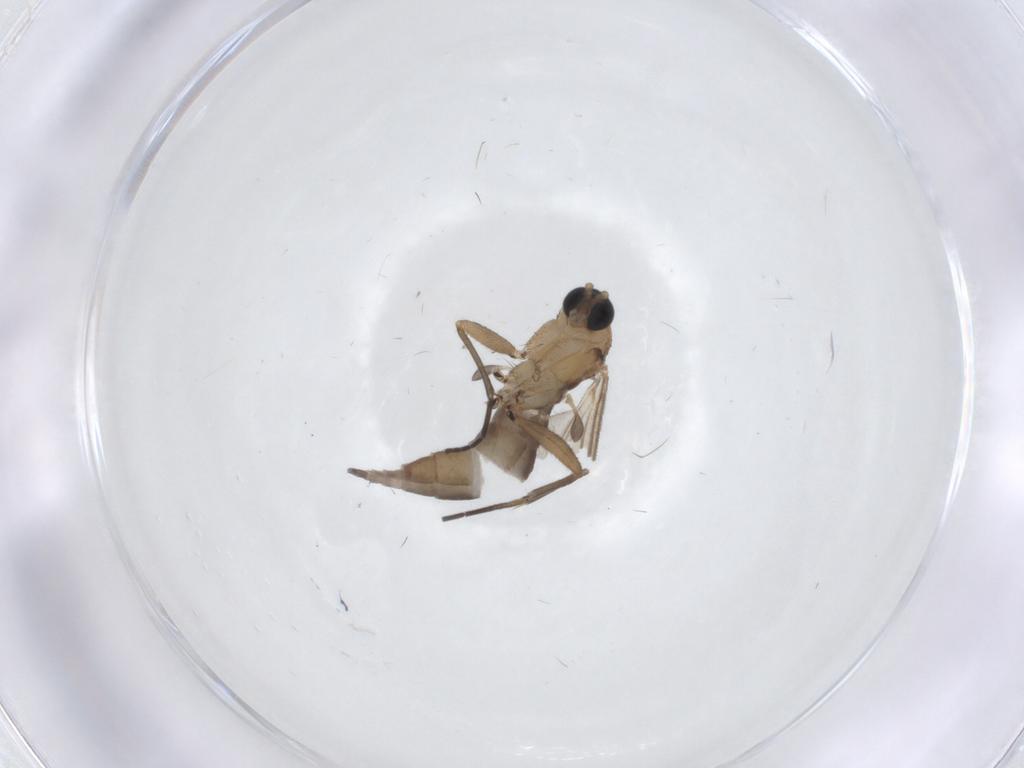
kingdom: Animalia
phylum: Arthropoda
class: Insecta
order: Diptera
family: Sciaridae
